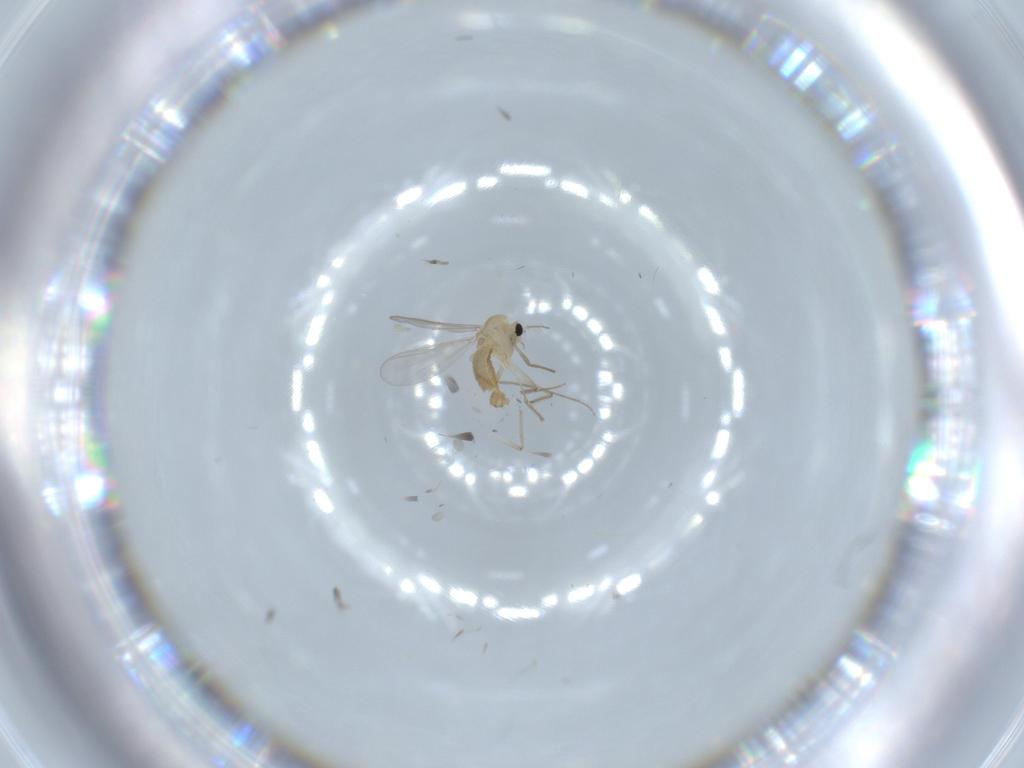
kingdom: Animalia
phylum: Arthropoda
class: Insecta
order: Diptera
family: Chironomidae
